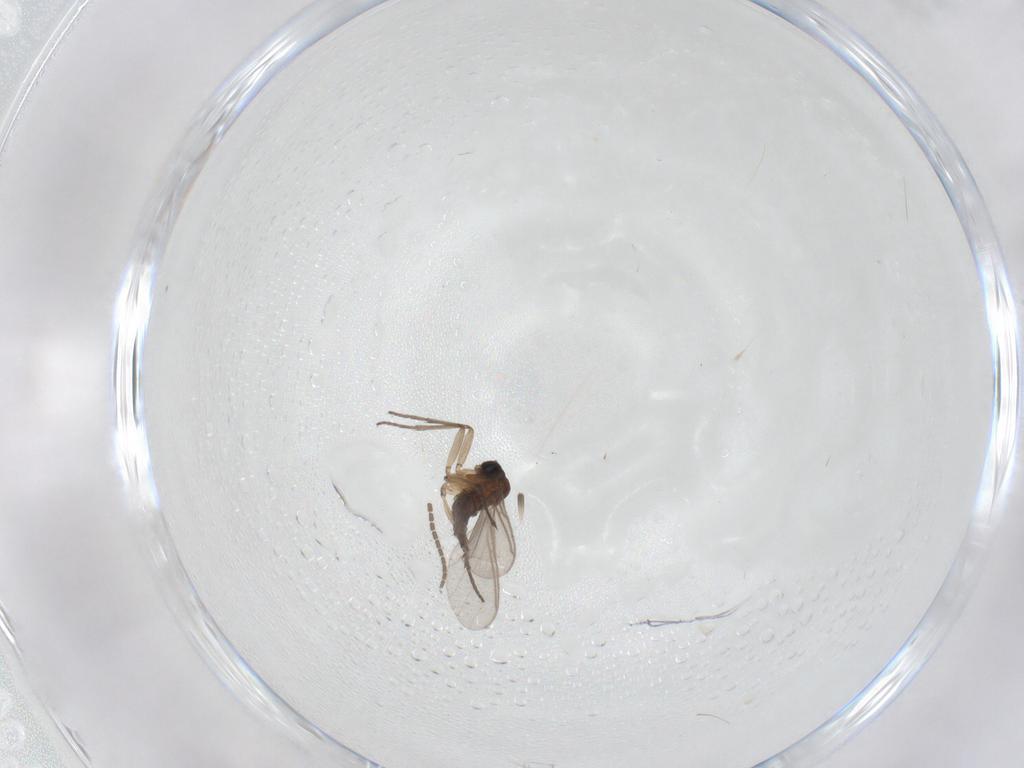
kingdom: Animalia
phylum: Arthropoda
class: Insecta
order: Diptera
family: Sciaridae
